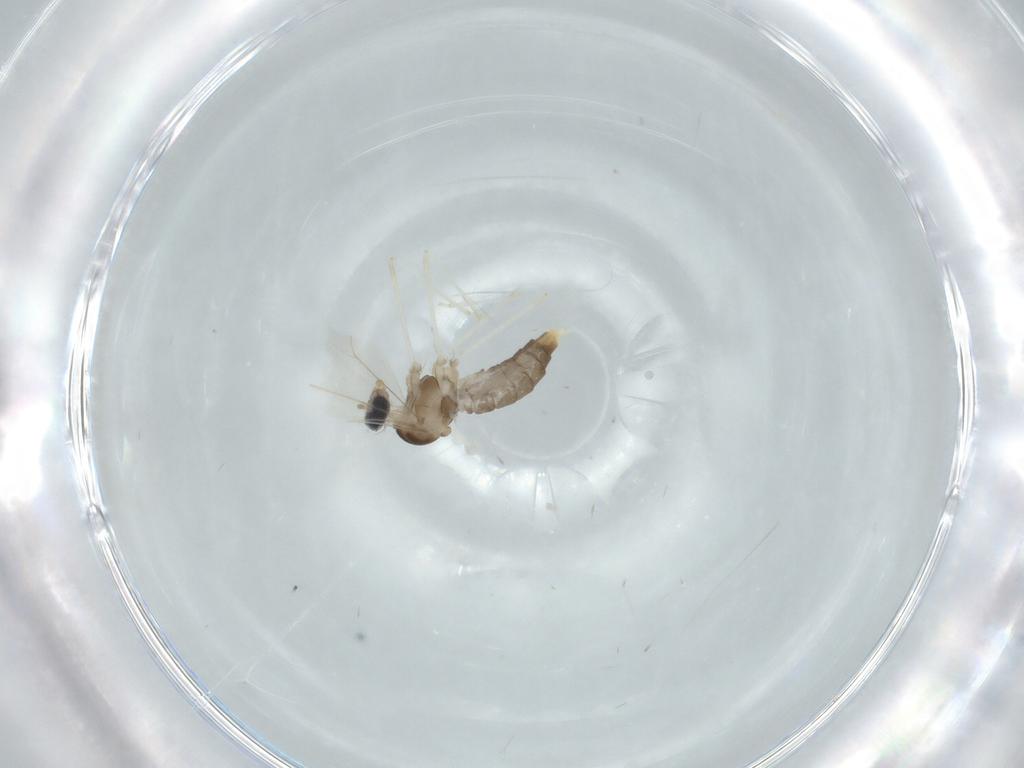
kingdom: Animalia
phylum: Arthropoda
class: Insecta
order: Diptera
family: Cecidomyiidae
